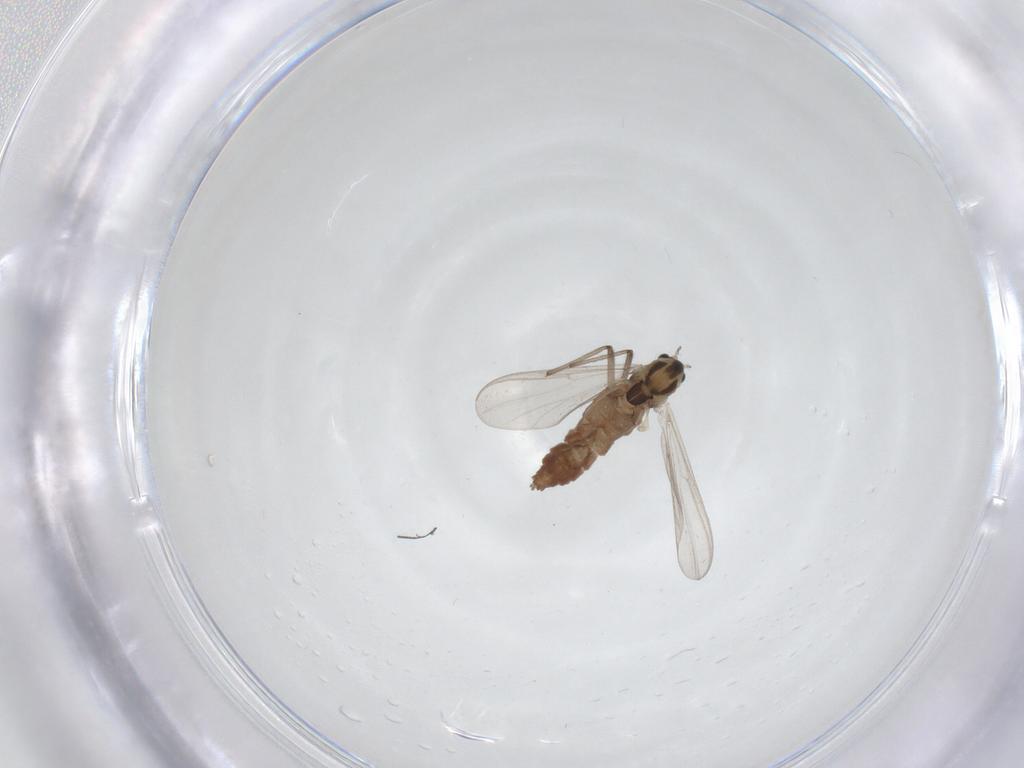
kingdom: Animalia
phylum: Arthropoda
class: Insecta
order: Diptera
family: Chironomidae
